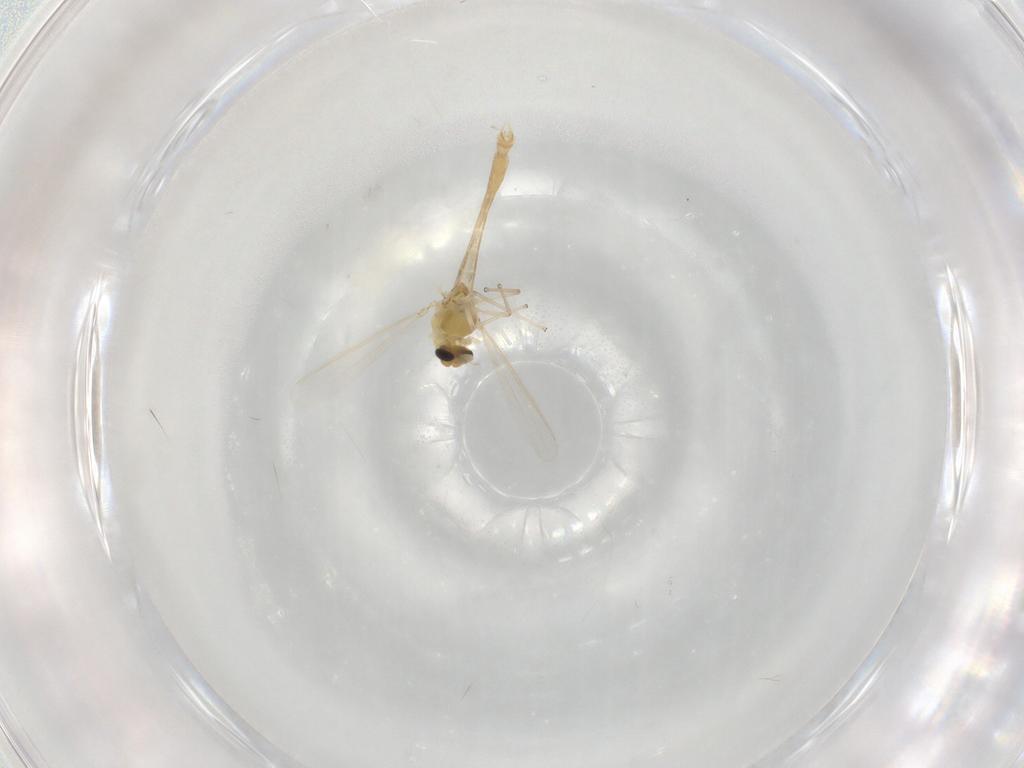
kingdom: Animalia
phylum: Arthropoda
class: Insecta
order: Diptera
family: Chironomidae
